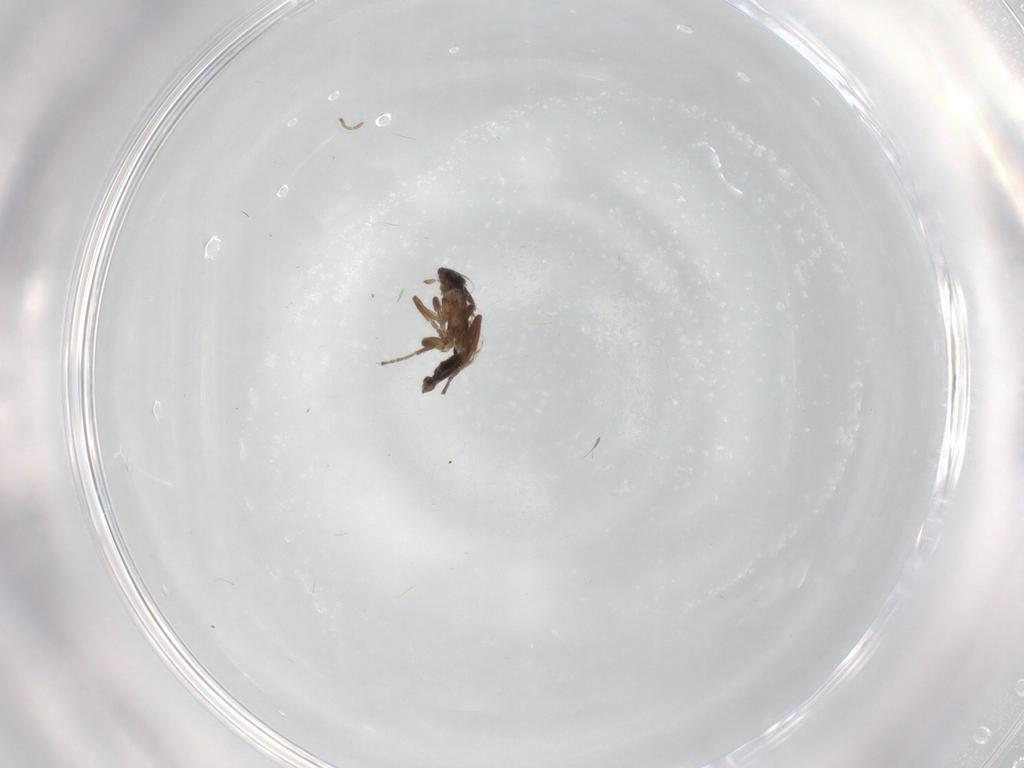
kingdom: Animalia
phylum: Arthropoda
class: Insecta
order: Diptera
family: Cecidomyiidae
